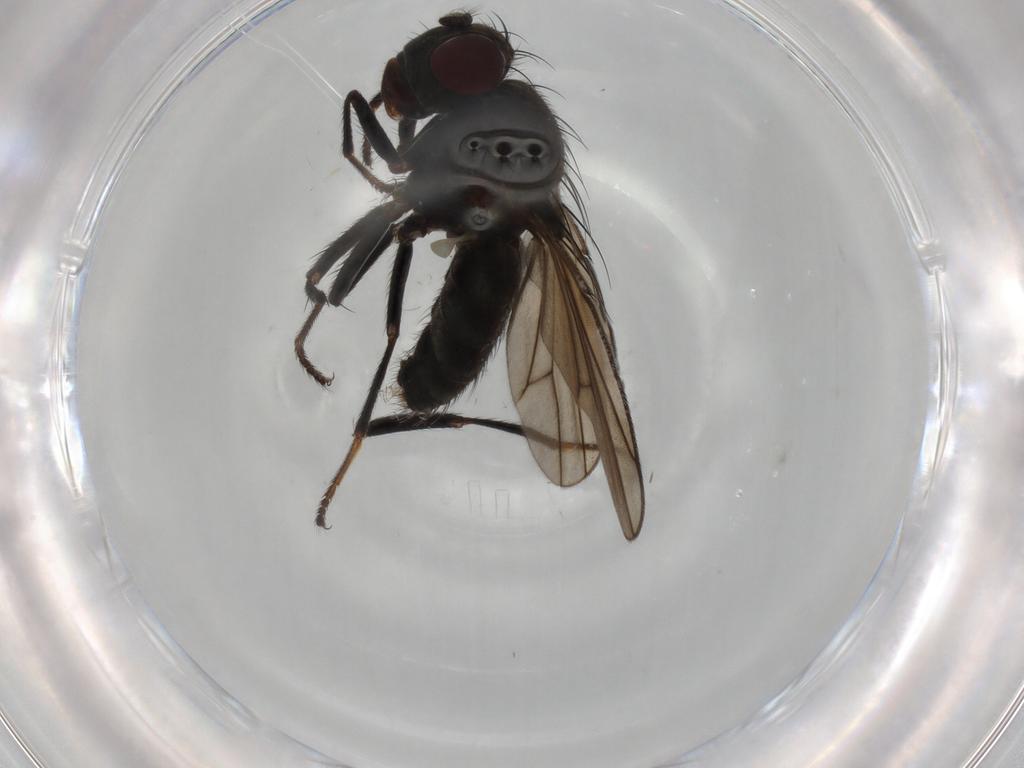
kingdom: Animalia
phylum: Arthropoda
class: Insecta
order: Diptera
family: Ephydridae
